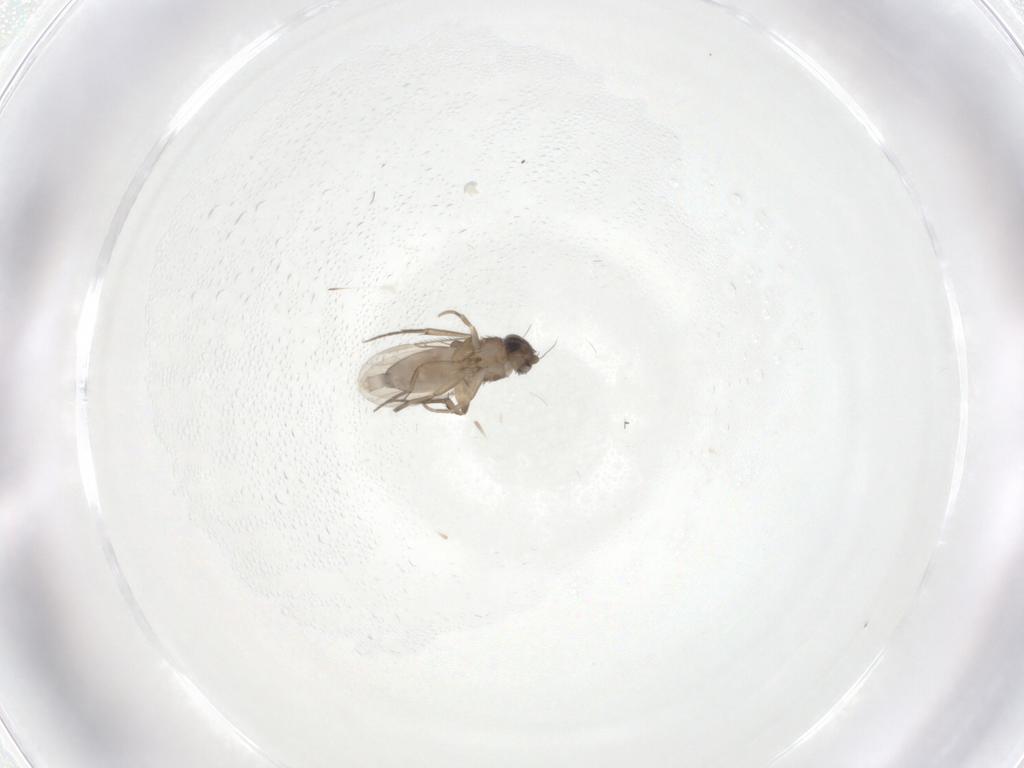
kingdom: Animalia
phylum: Arthropoda
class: Insecta
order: Diptera
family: Phoridae
